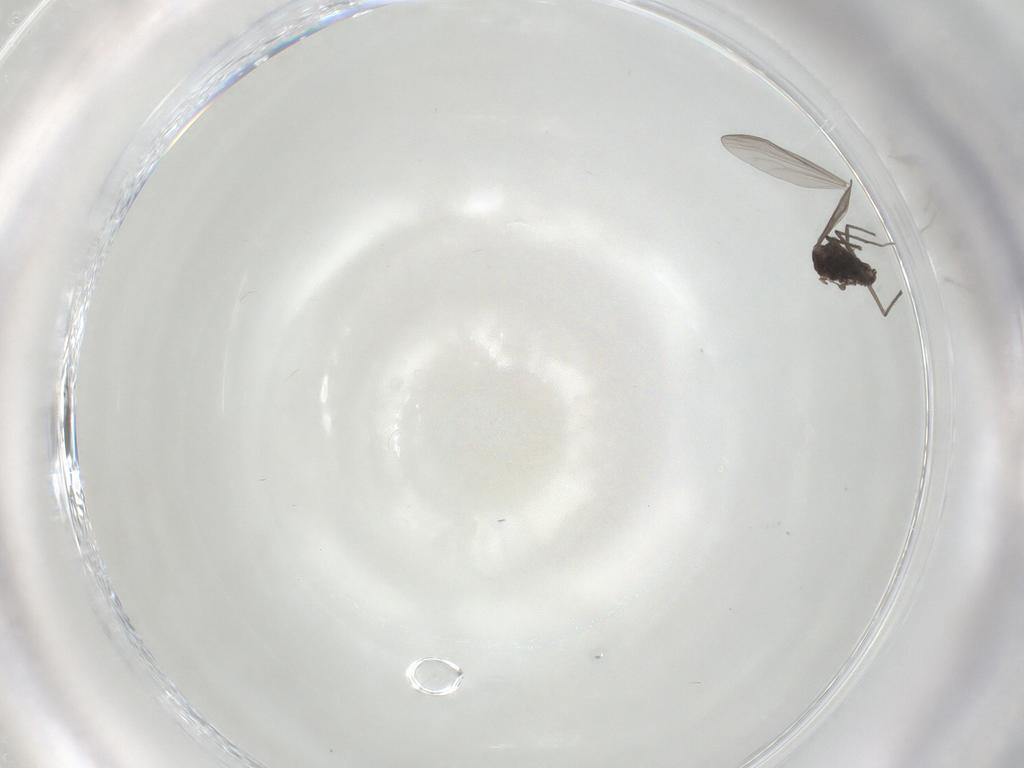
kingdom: Animalia
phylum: Arthropoda
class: Insecta
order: Diptera
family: Chironomidae
